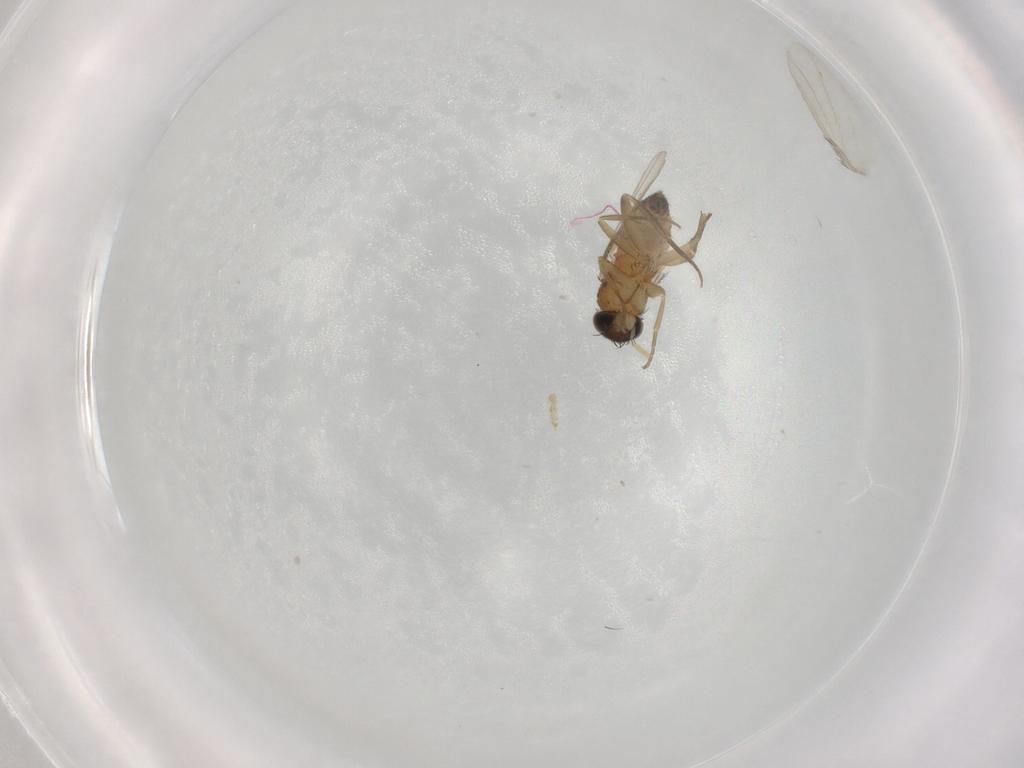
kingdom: Animalia
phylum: Arthropoda
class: Insecta
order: Diptera
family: Phoridae
